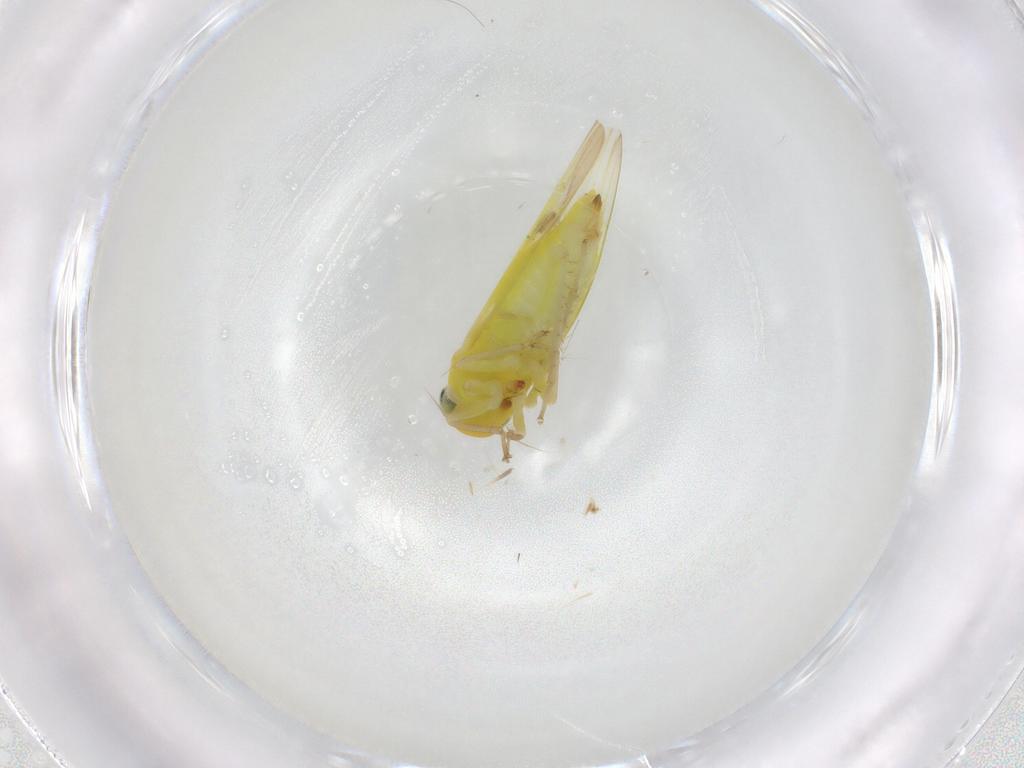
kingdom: Animalia
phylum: Arthropoda
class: Insecta
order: Hemiptera
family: Cicadellidae
